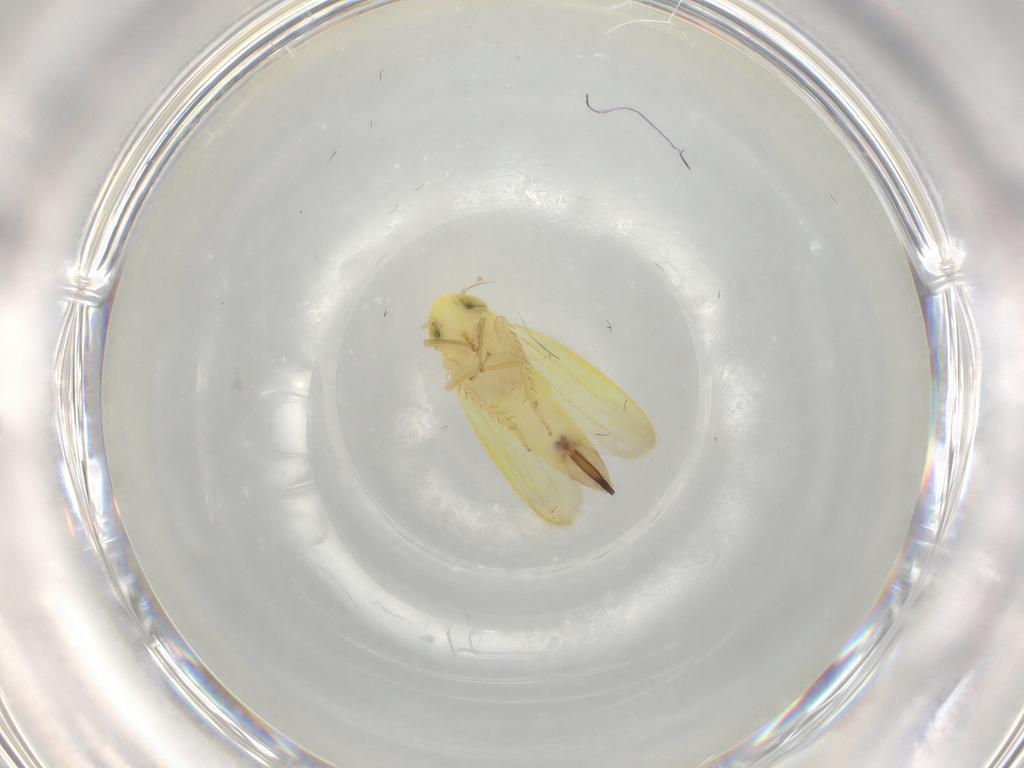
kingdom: Animalia
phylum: Arthropoda
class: Insecta
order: Hemiptera
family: Cicadellidae
